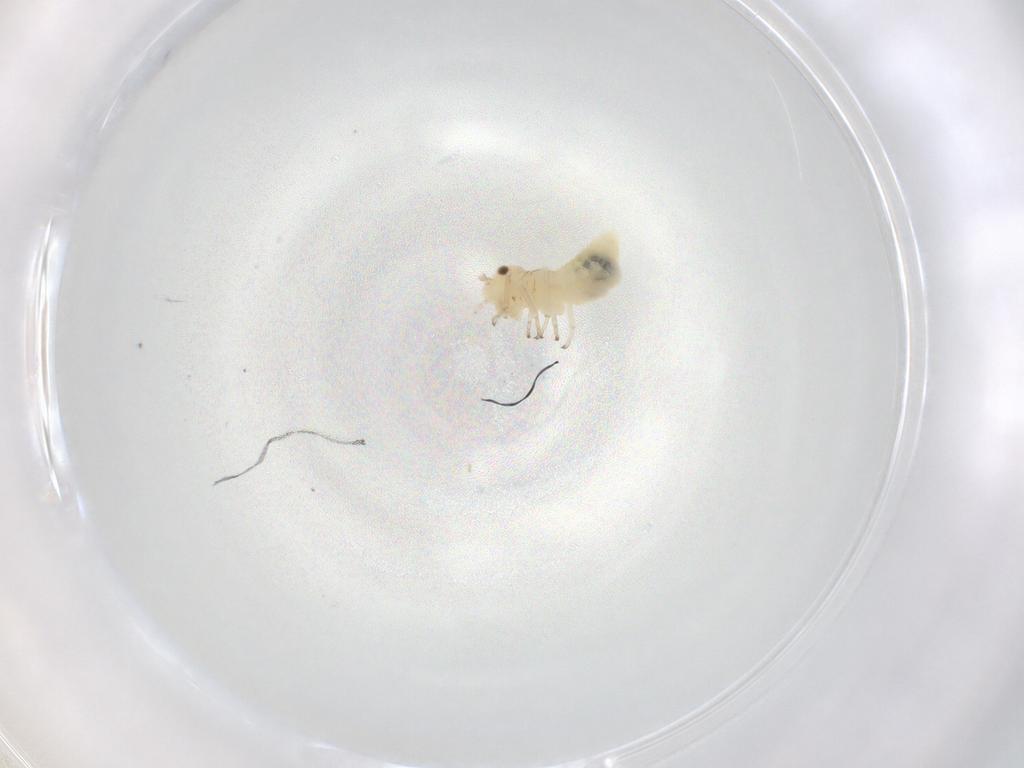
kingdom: Animalia
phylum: Arthropoda
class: Insecta
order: Psocodea
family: Caeciliusidae
